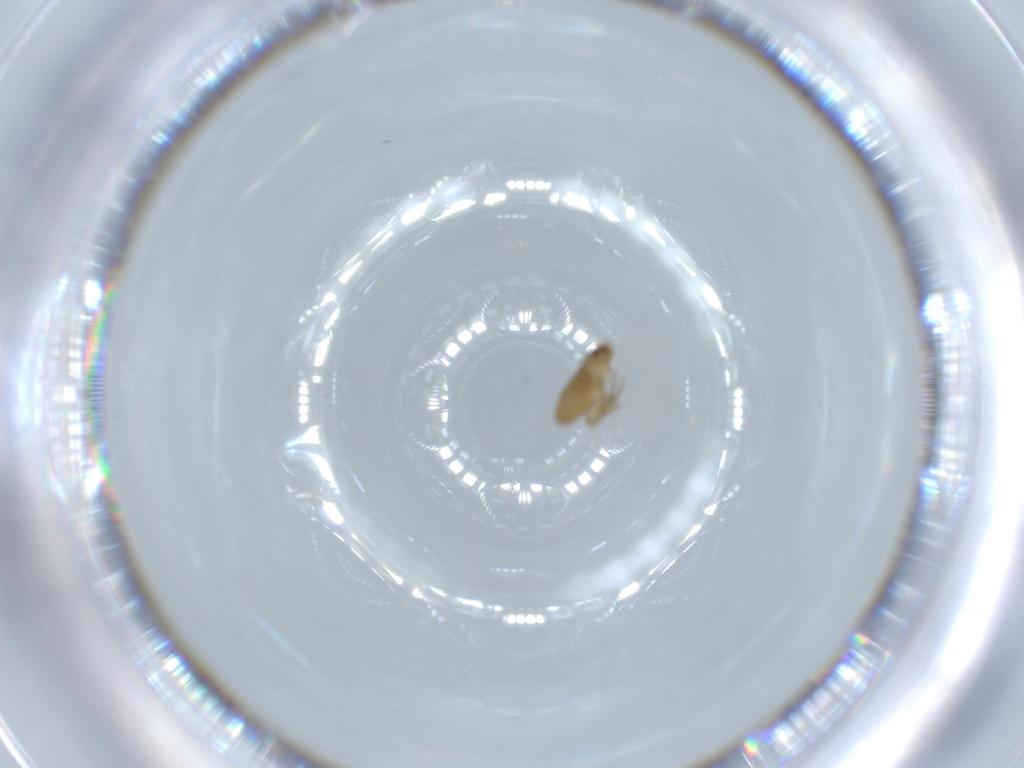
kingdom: Animalia
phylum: Arthropoda
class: Insecta
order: Diptera
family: Phoridae
